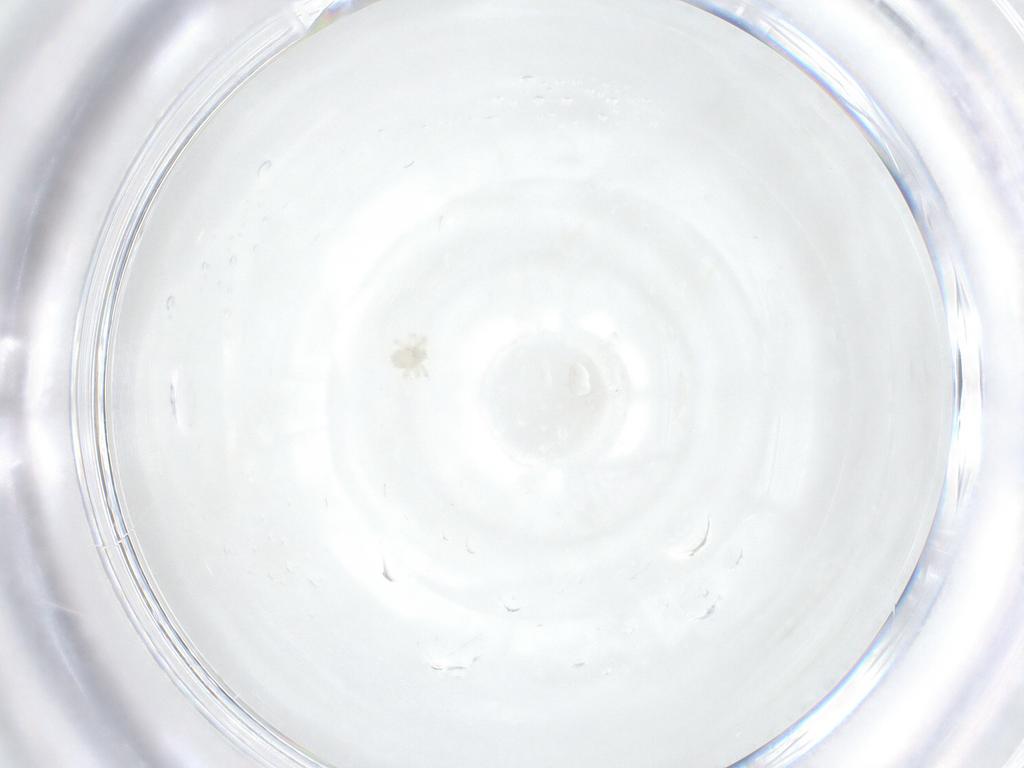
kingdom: Animalia
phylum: Arthropoda
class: Arachnida
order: Trombidiformes
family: Anystidae
